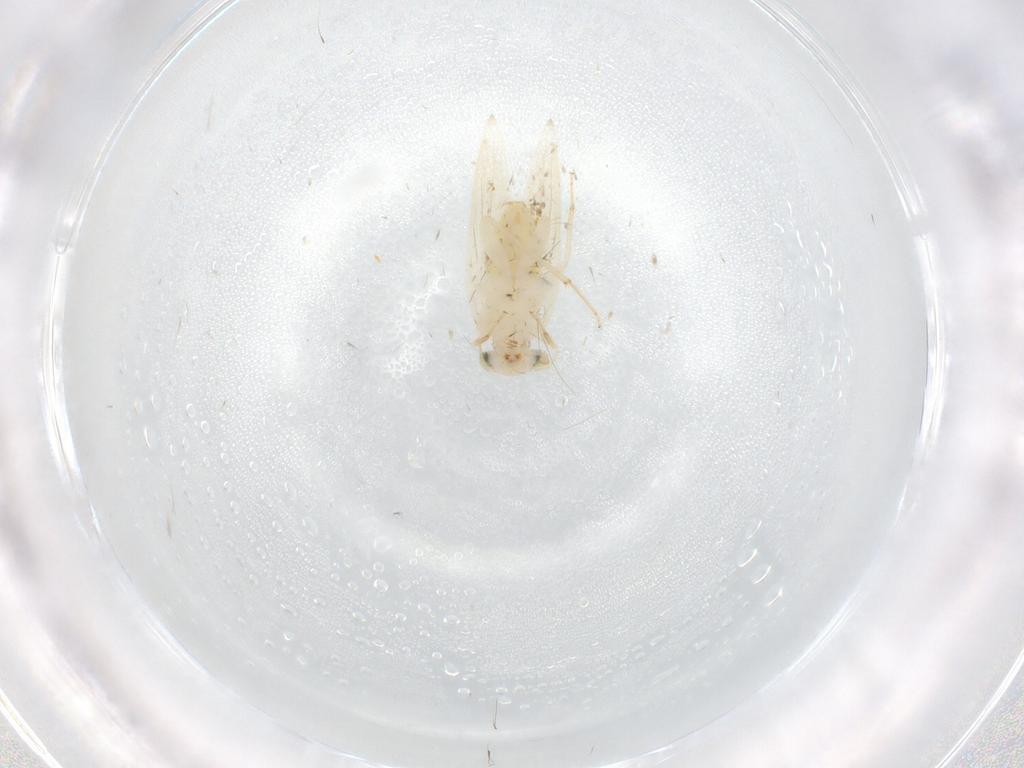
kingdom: Animalia
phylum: Arthropoda
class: Insecta
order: Psocodea
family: Lepidopsocidae
